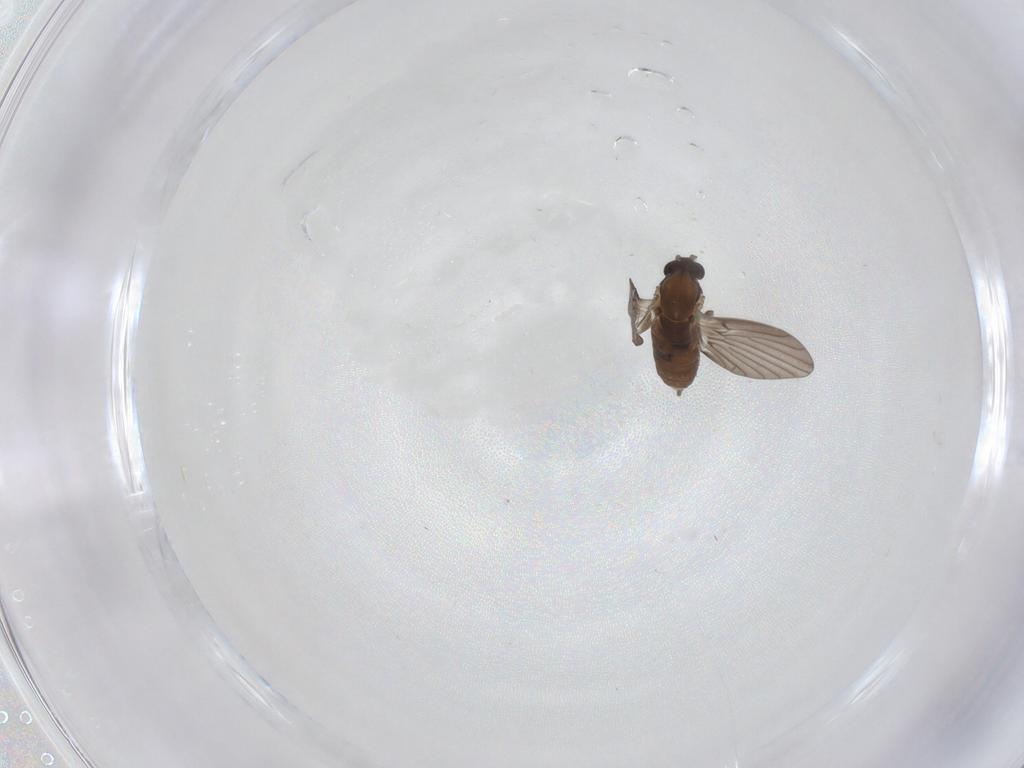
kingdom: Animalia
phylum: Arthropoda
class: Insecta
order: Diptera
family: Psychodidae
